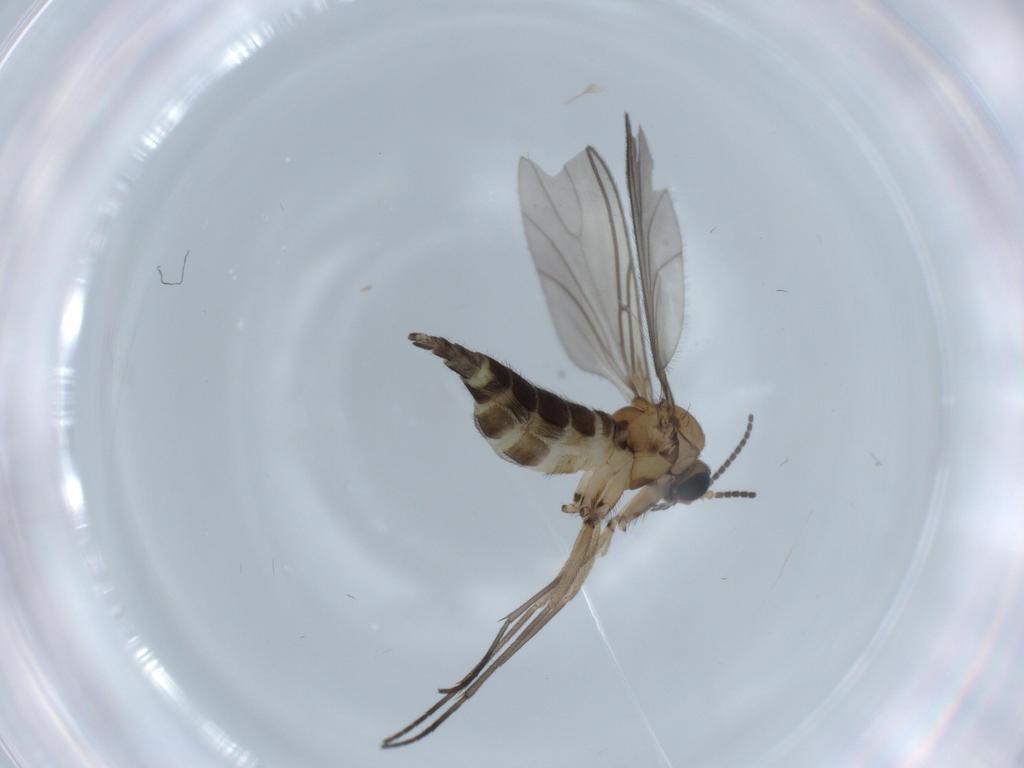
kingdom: Animalia
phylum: Arthropoda
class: Insecta
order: Diptera
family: Sciaridae
